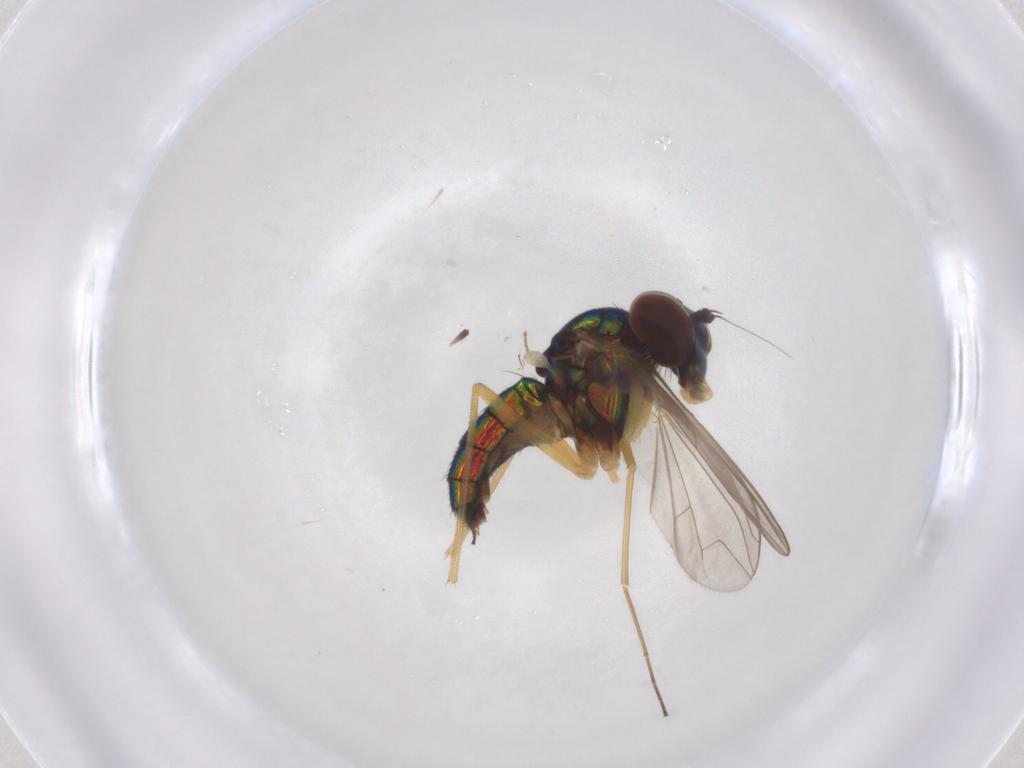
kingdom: Animalia
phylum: Arthropoda
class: Insecta
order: Diptera
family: Dolichopodidae
